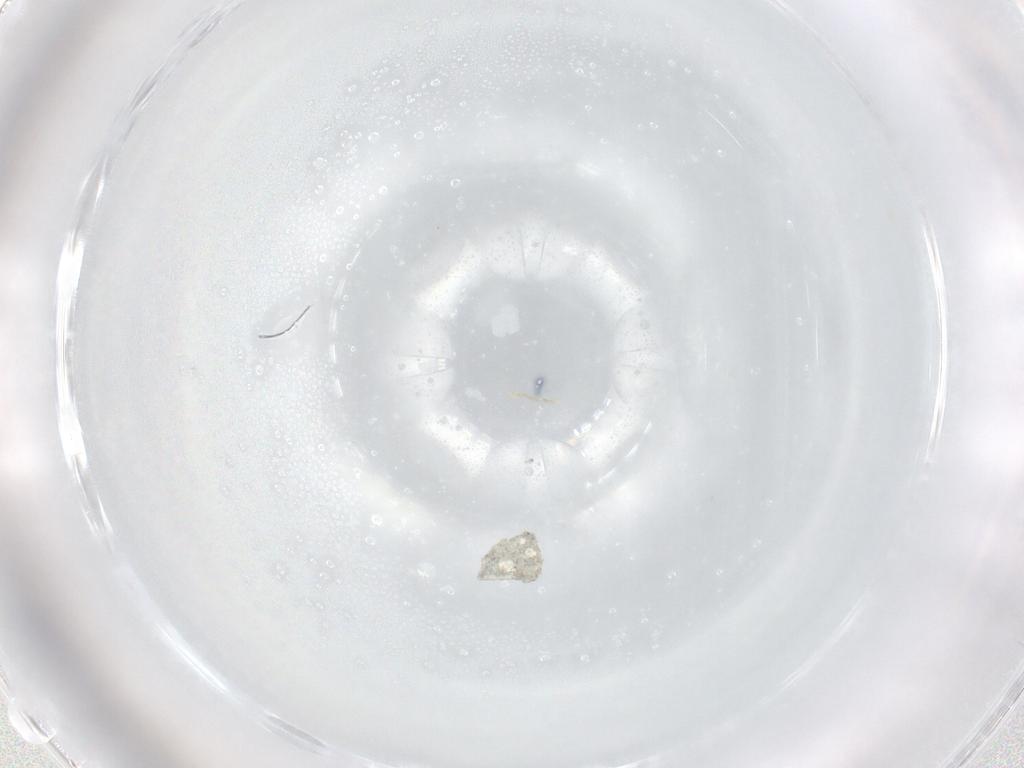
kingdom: Animalia
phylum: Arthropoda
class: Insecta
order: Lepidoptera
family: Gelechiidae
